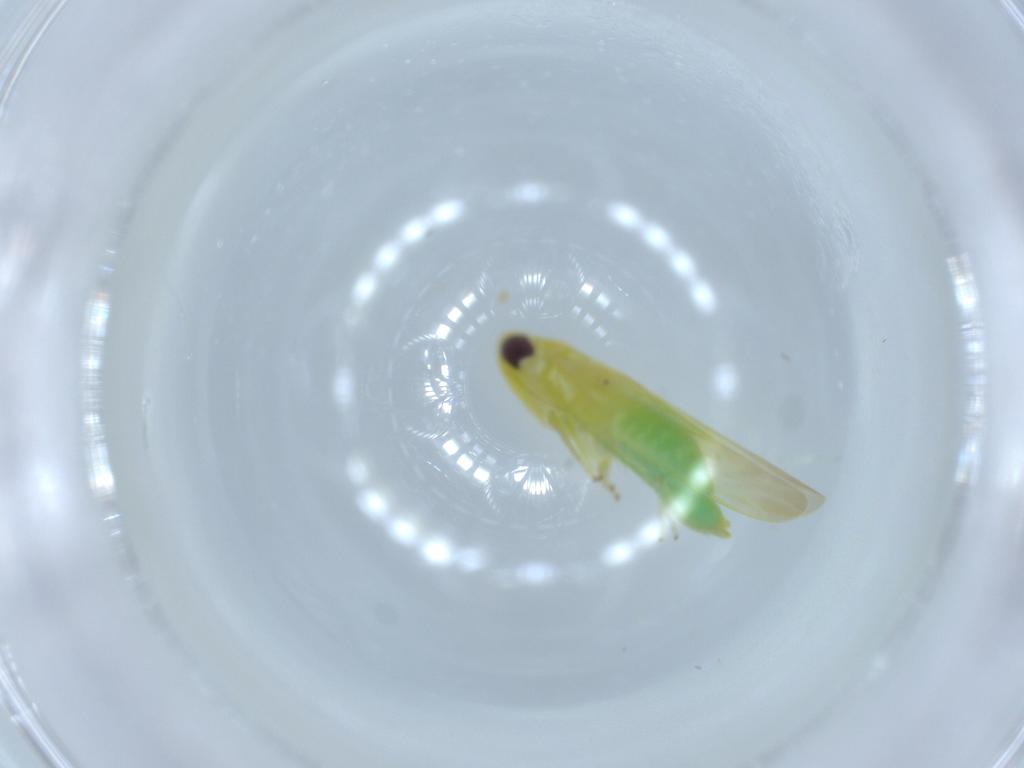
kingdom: Animalia
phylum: Arthropoda
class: Insecta
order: Hemiptera
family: Cicadellidae
